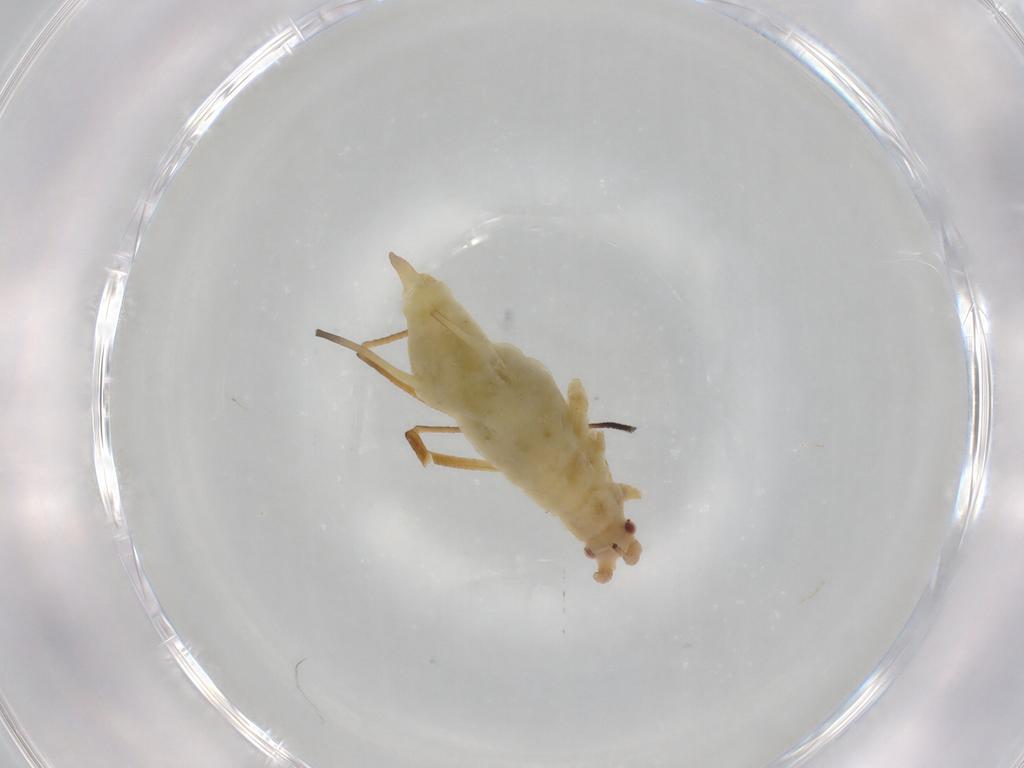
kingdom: Animalia
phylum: Arthropoda
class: Insecta
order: Hemiptera
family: Aphididae
